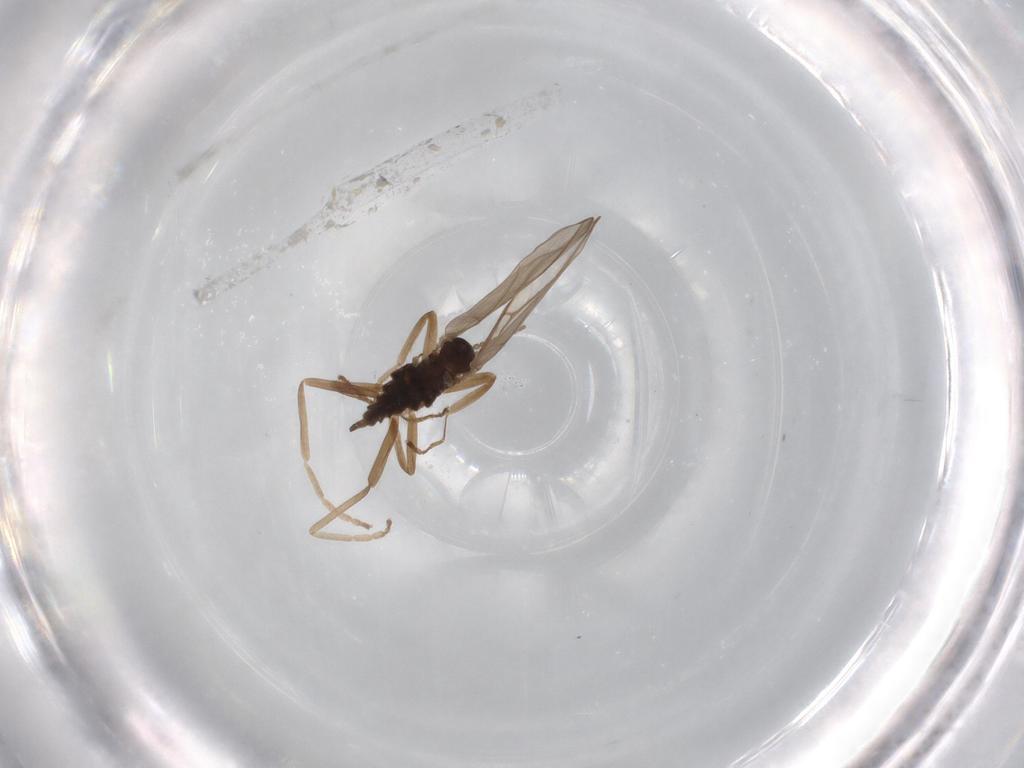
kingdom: Animalia
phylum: Arthropoda
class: Insecta
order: Diptera
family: Cecidomyiidae
